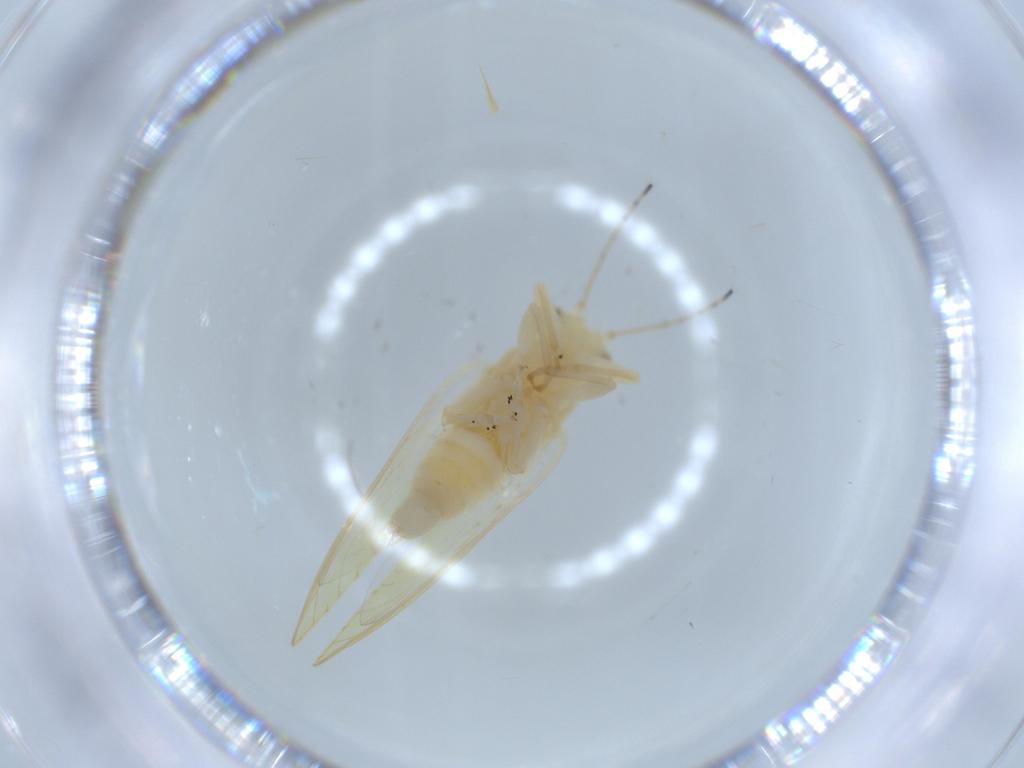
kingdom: Animalia
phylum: Arthropoda
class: Insecta
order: Hemiptera
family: Triozidae
